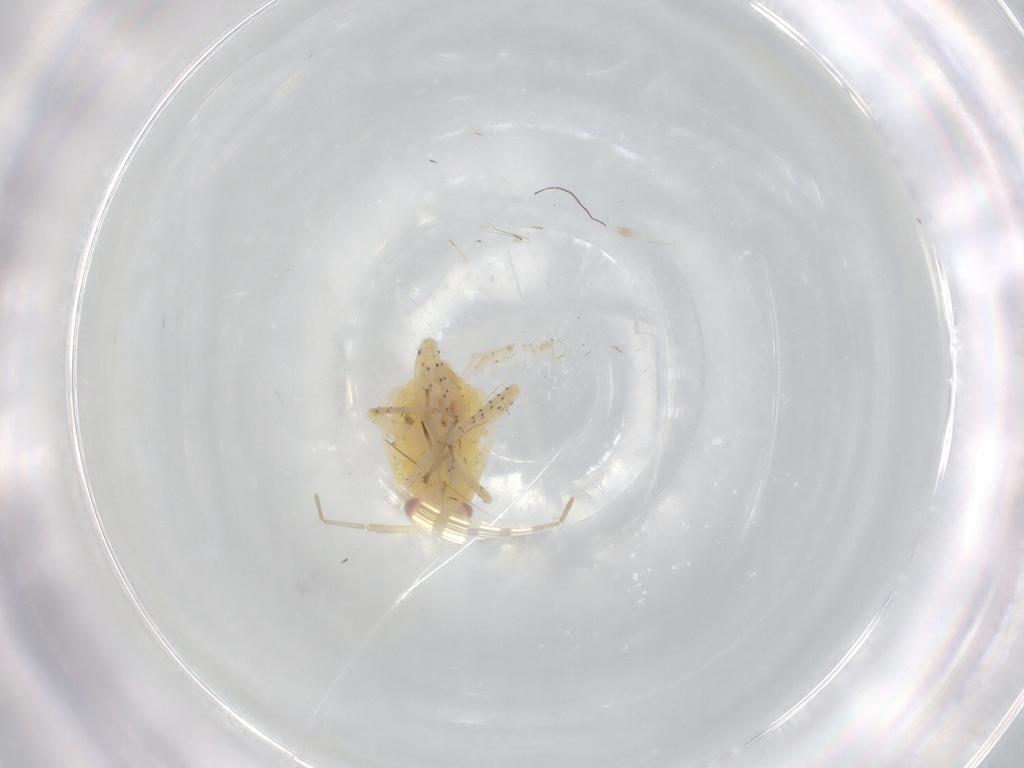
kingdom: Animalia
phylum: Arthropoda
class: Insecta
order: Hemiptera
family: Miridae
